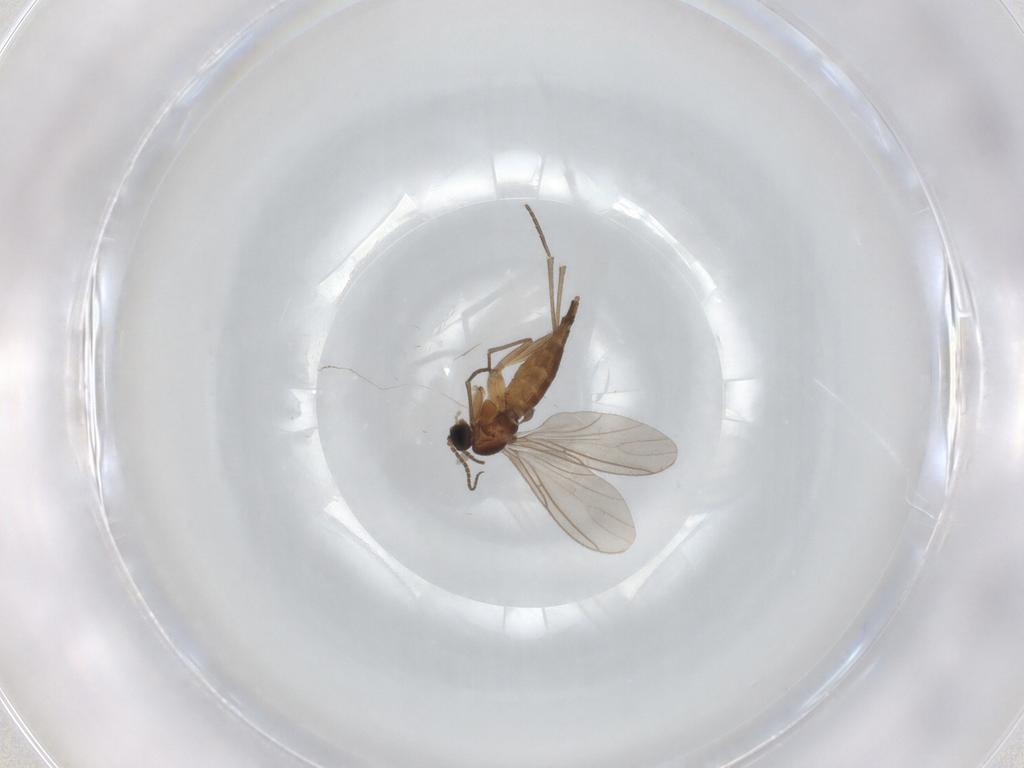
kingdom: Animalia
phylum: Arthropoda
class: Insecta
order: Diptera
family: Sciaridae
